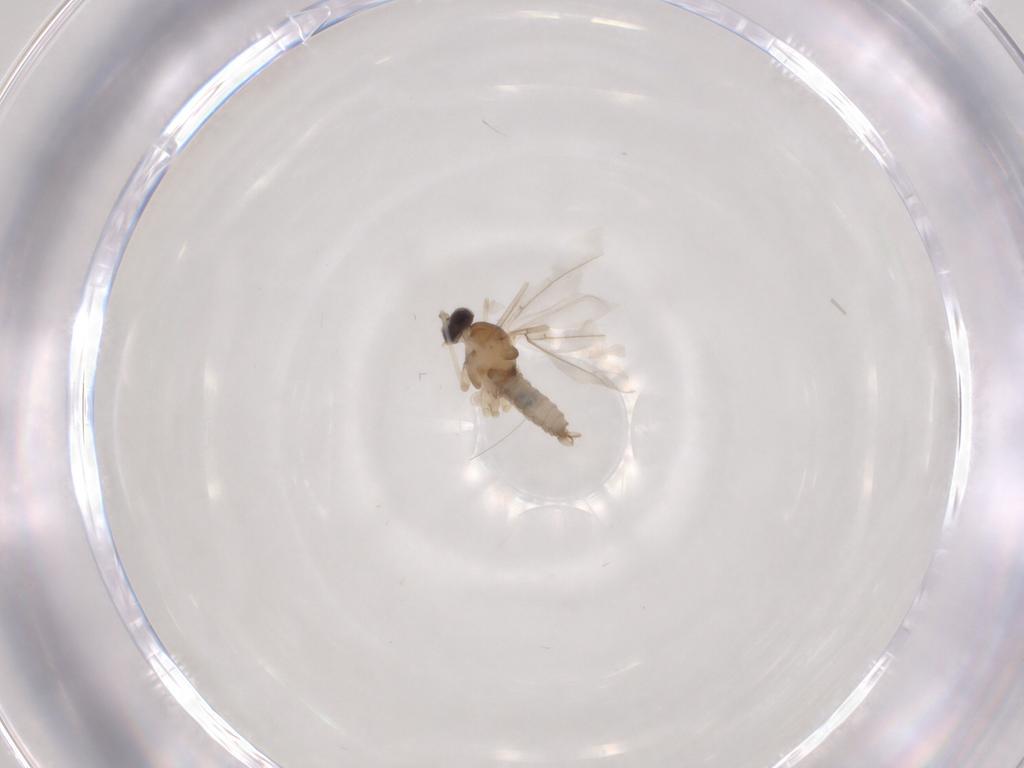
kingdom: Animalia
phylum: Arthropoda
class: Insecta
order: Diptera
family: Cecidomyiidae
